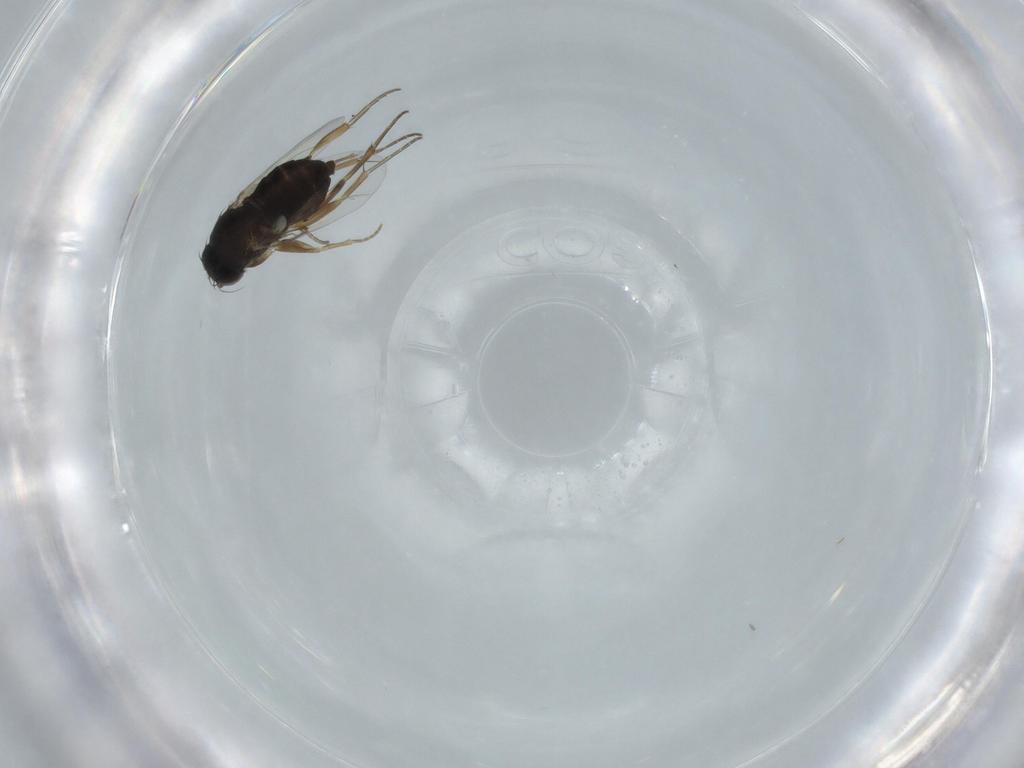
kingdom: Animalia
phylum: Arthropoda
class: Insecta
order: Diptera
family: Phoridae
